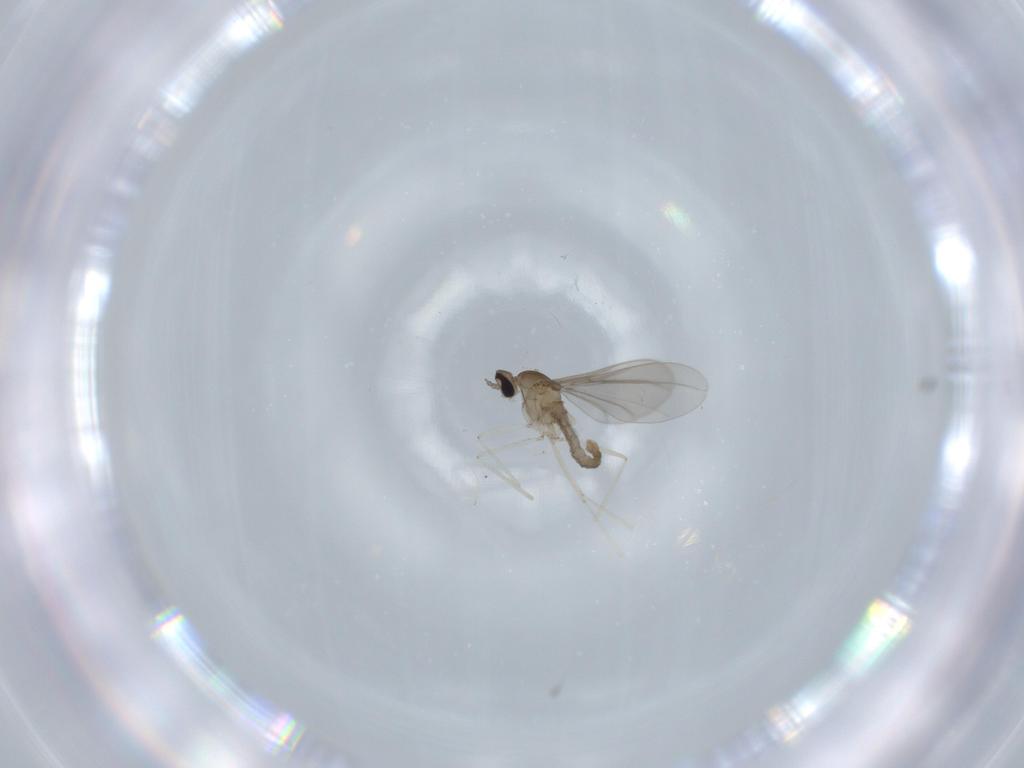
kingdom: Animalia
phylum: Arthropoda
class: Insecta
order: Diptera
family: Cecidomyiidae
